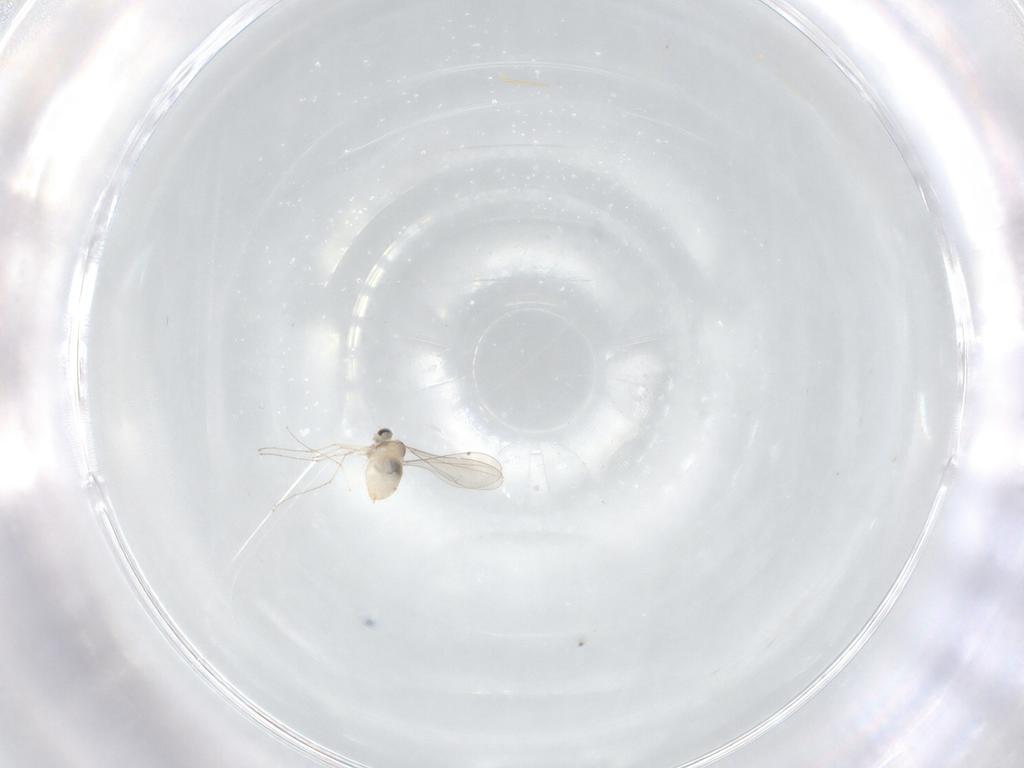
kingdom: Animalia
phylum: Arthropoda
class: Insecta
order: Diptera
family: Cecidomyiidae
